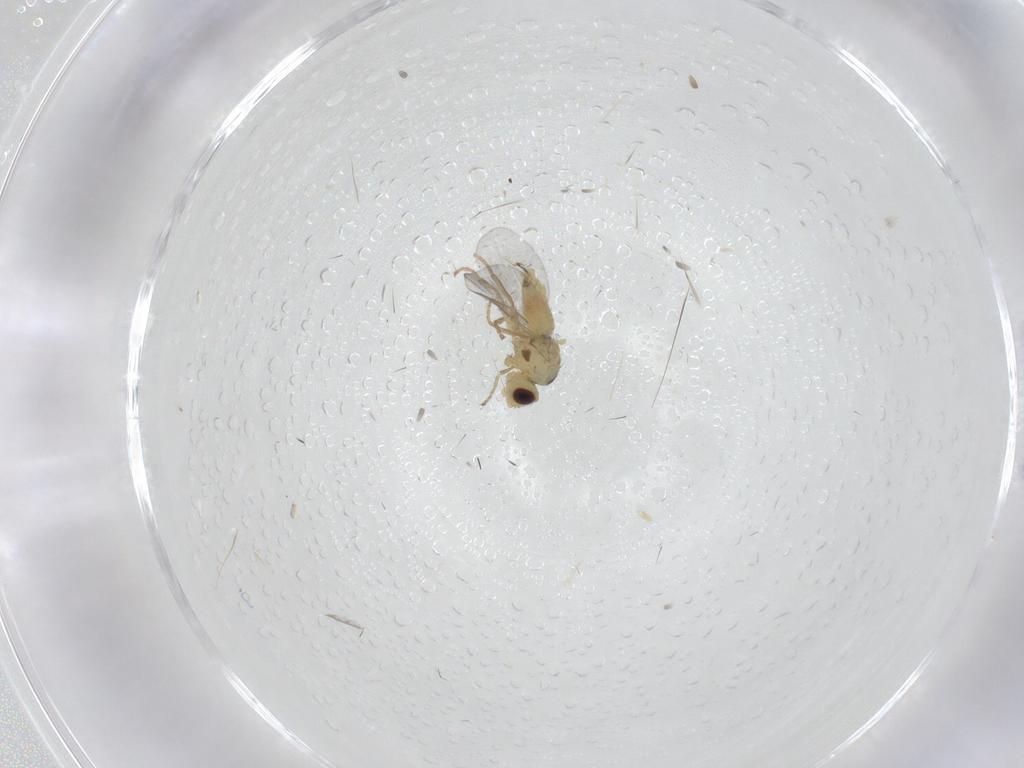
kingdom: Animalia
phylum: Arthropoda
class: Insecta
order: Diptera
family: Agromyzidae
